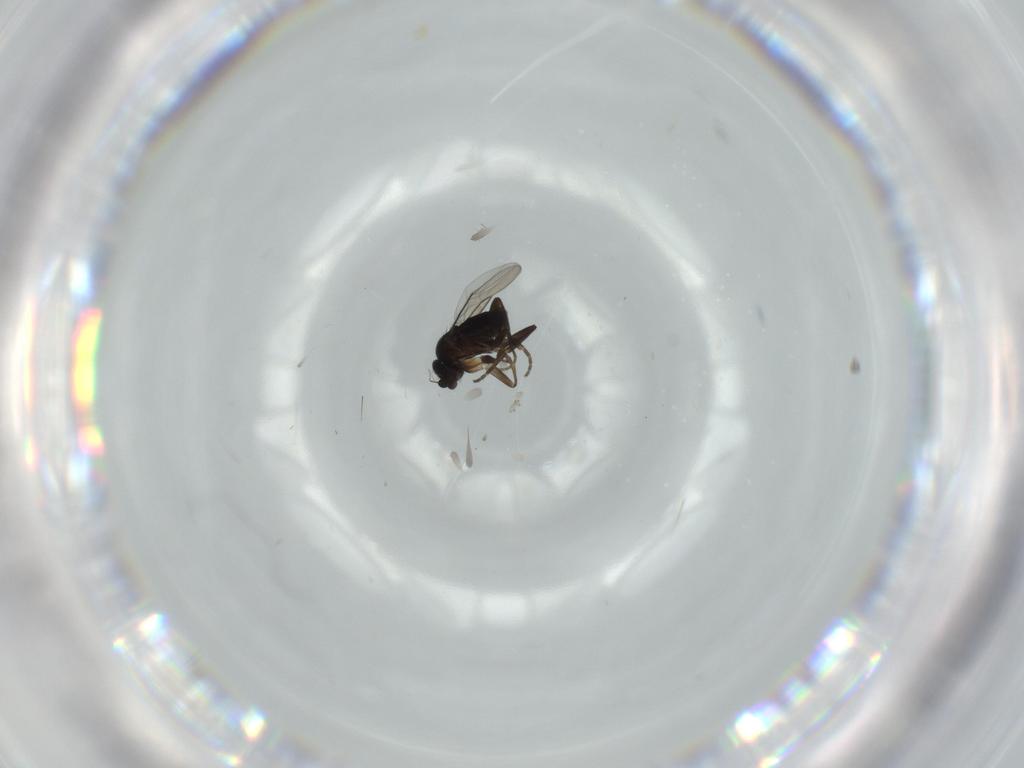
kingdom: Animalia
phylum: Arthropoda
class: Insecta
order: Diptera
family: Phoridae
